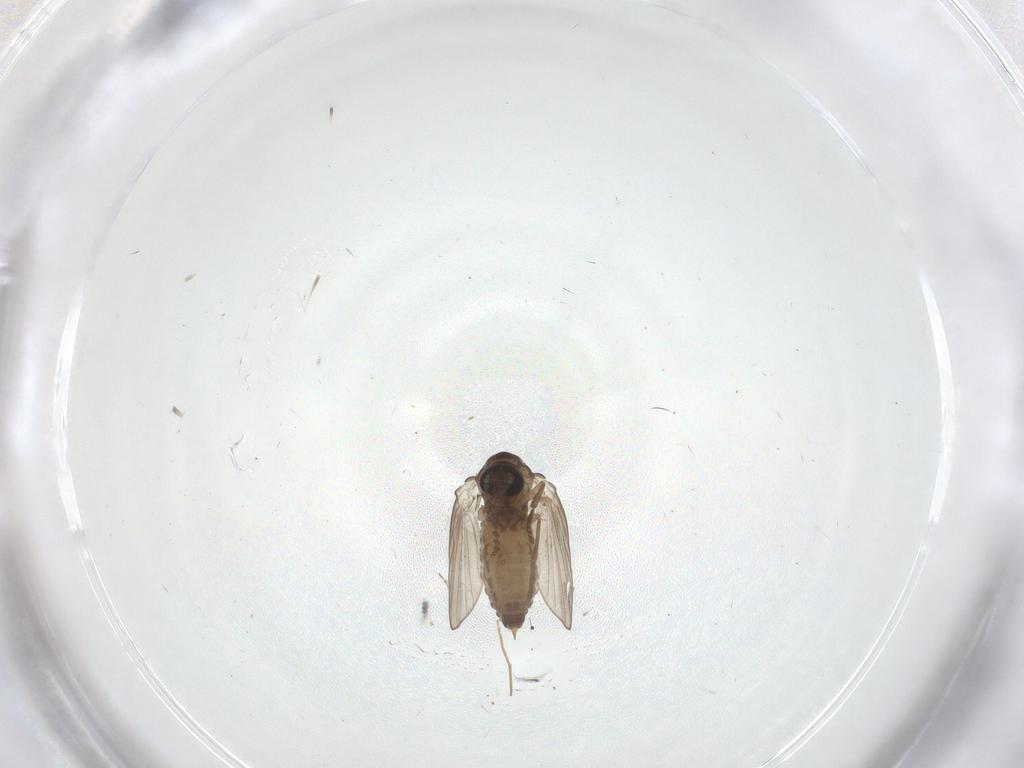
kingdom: Animalia
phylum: Arthropoda
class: Insecta
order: Diptera
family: Psychodidae
